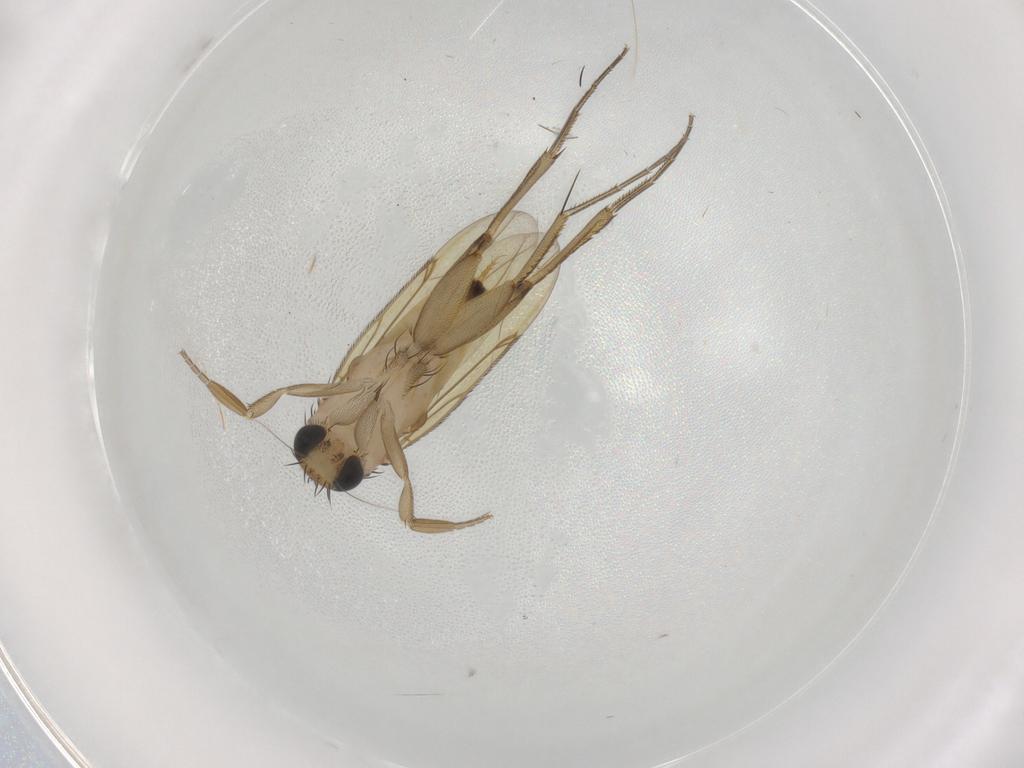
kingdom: Animalia
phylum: Arthropoda
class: Insecta
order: Diptera
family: Phoridae
